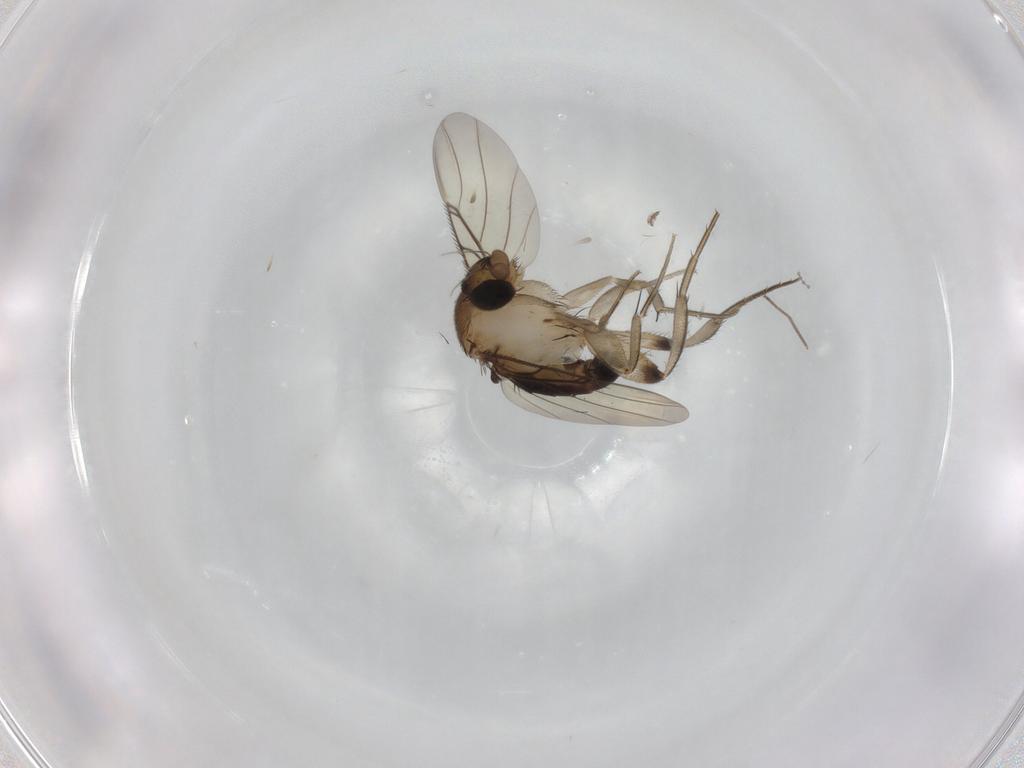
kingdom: Animalia
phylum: Arthropoda
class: Insecta
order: Diptera
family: Phoridae
